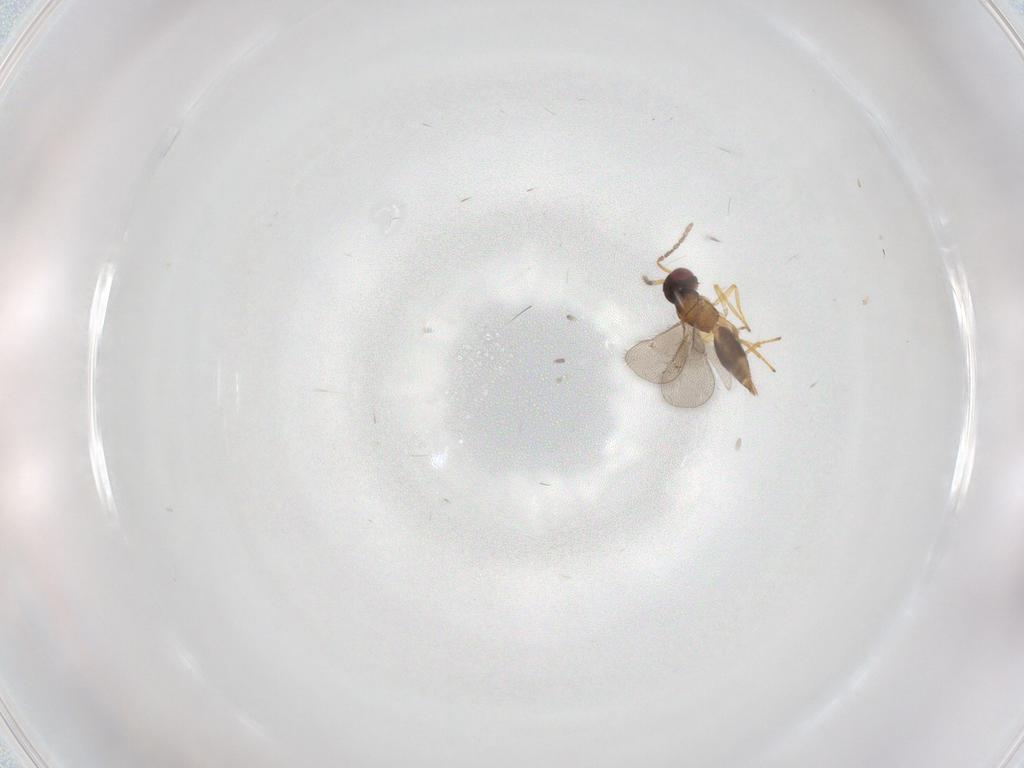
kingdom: Animalia
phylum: Arthropoda
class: Insecta
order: Hymenoptera
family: Eulophidae
